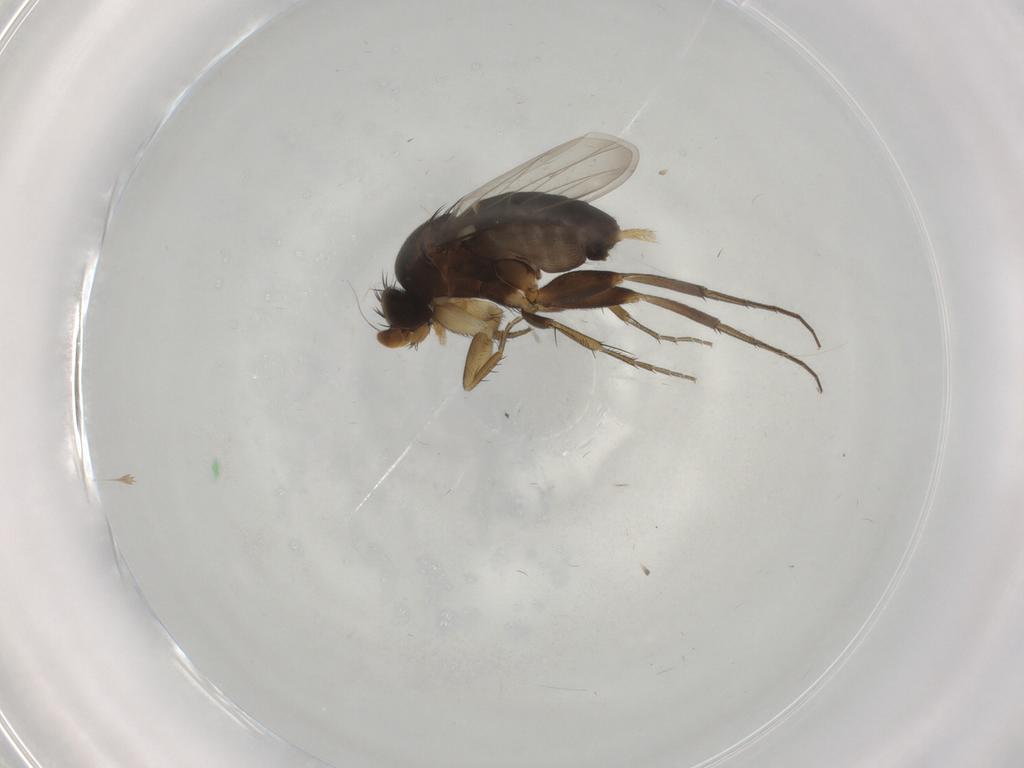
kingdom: Animalia
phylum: Arthropoda
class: Insecta
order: Diptera
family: Phoridae
